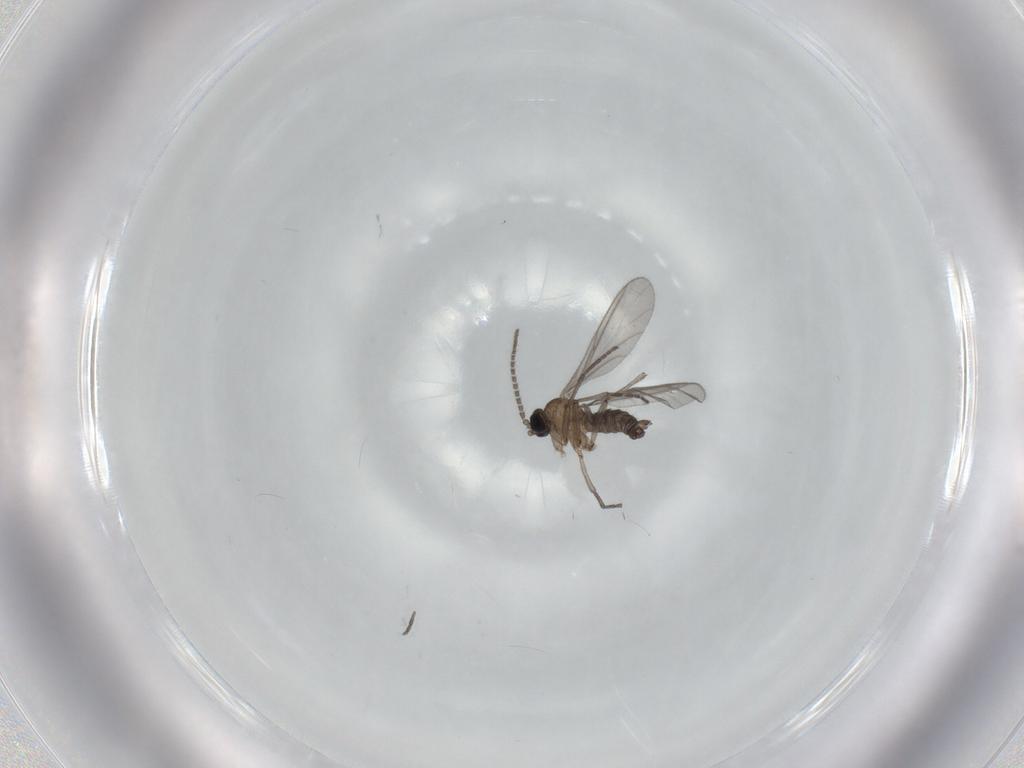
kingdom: Animalia
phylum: Arthropoda
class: Insecta
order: Diptera
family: Sciaridae
